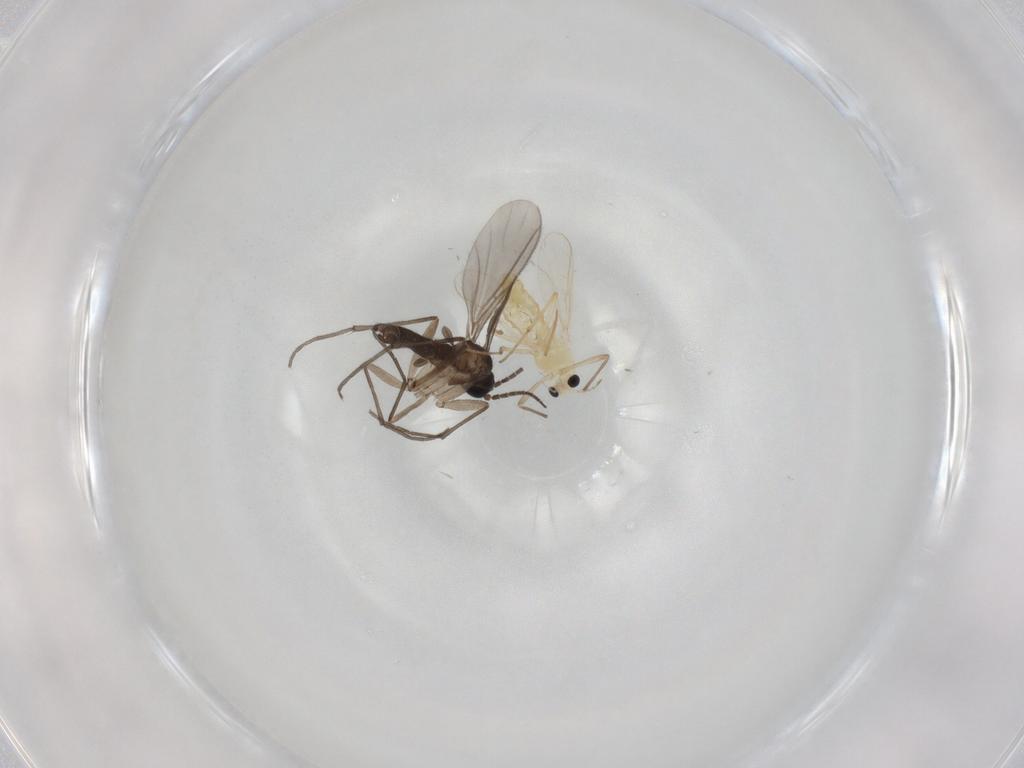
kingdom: Animalia
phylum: Arthropoda
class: Insecta
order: Diptera
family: Sciaridae
